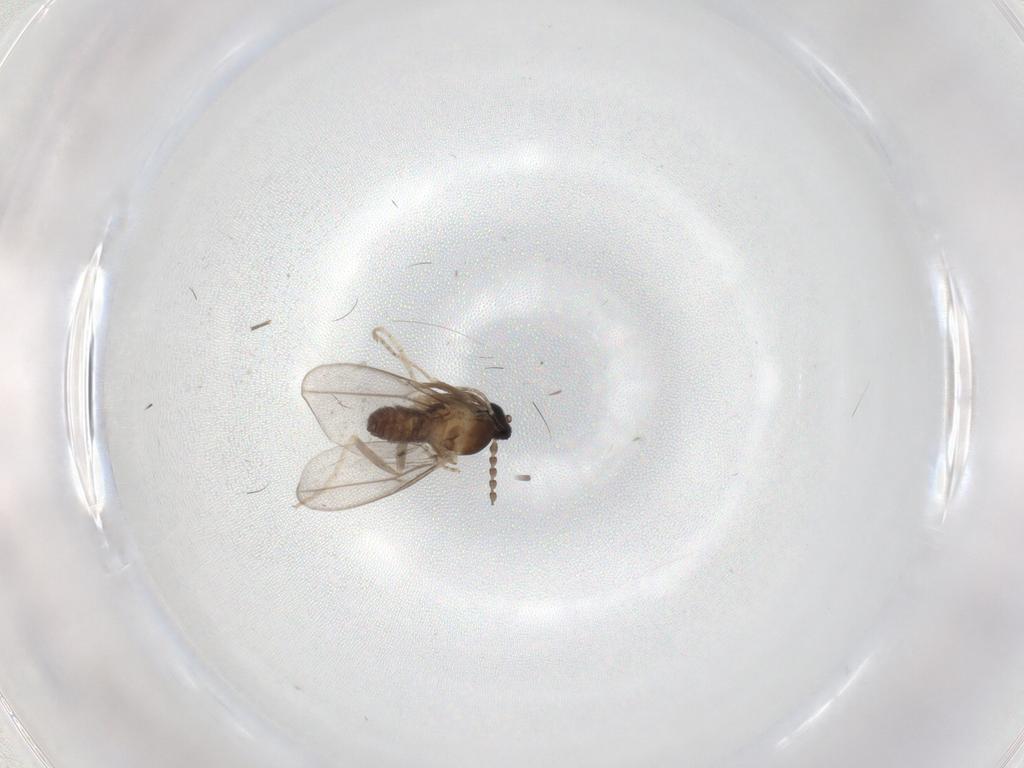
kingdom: Animalia
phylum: Arthropoda
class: Insecta
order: Diptera
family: Cecidomyiidae
